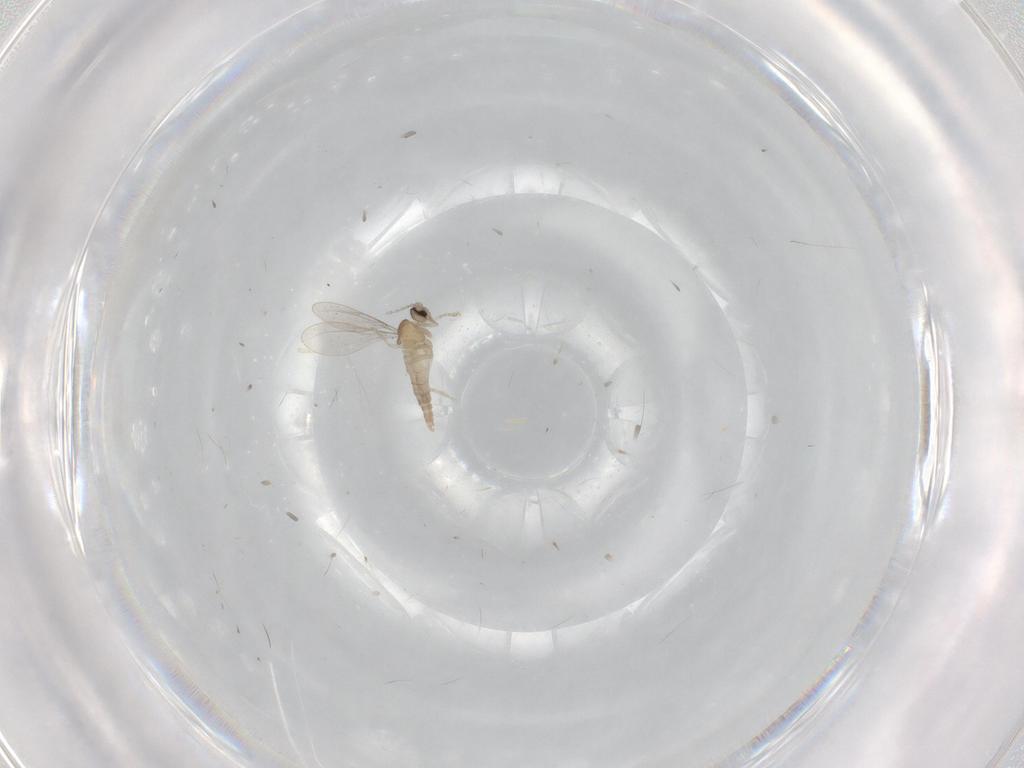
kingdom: Animalia
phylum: Arthropoda
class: Insecta
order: Diptera
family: Cecidomyiidae
